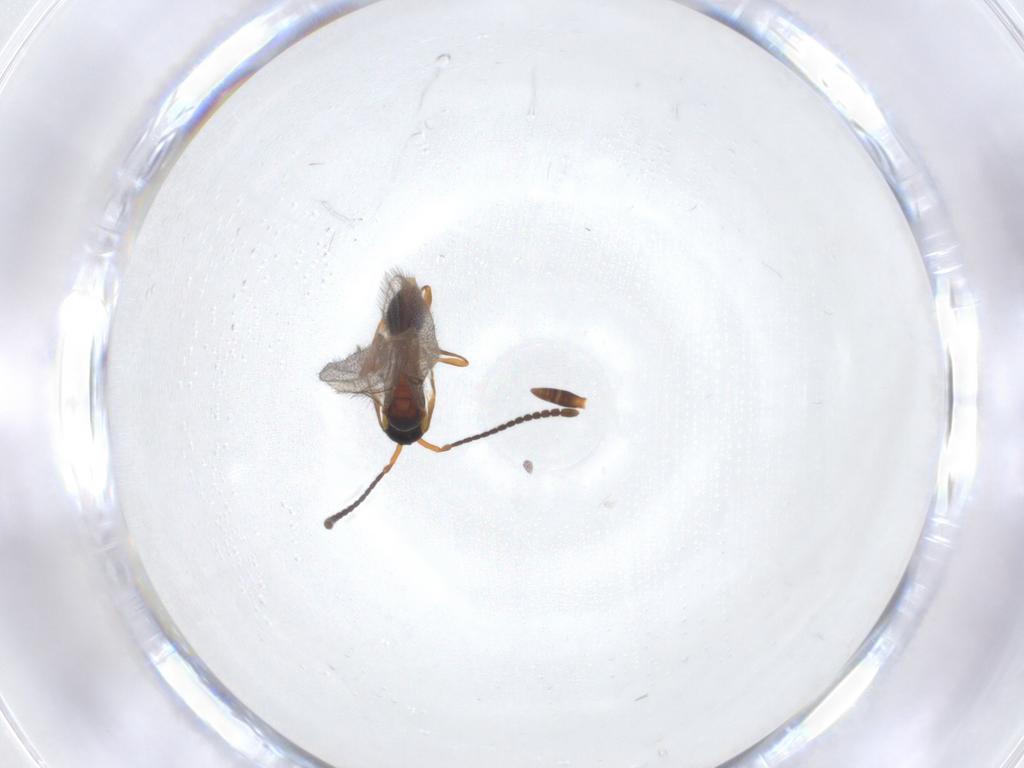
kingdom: Animalia
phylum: Arthropoda
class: Insecta
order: Hymenoptera
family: Diapriidae
